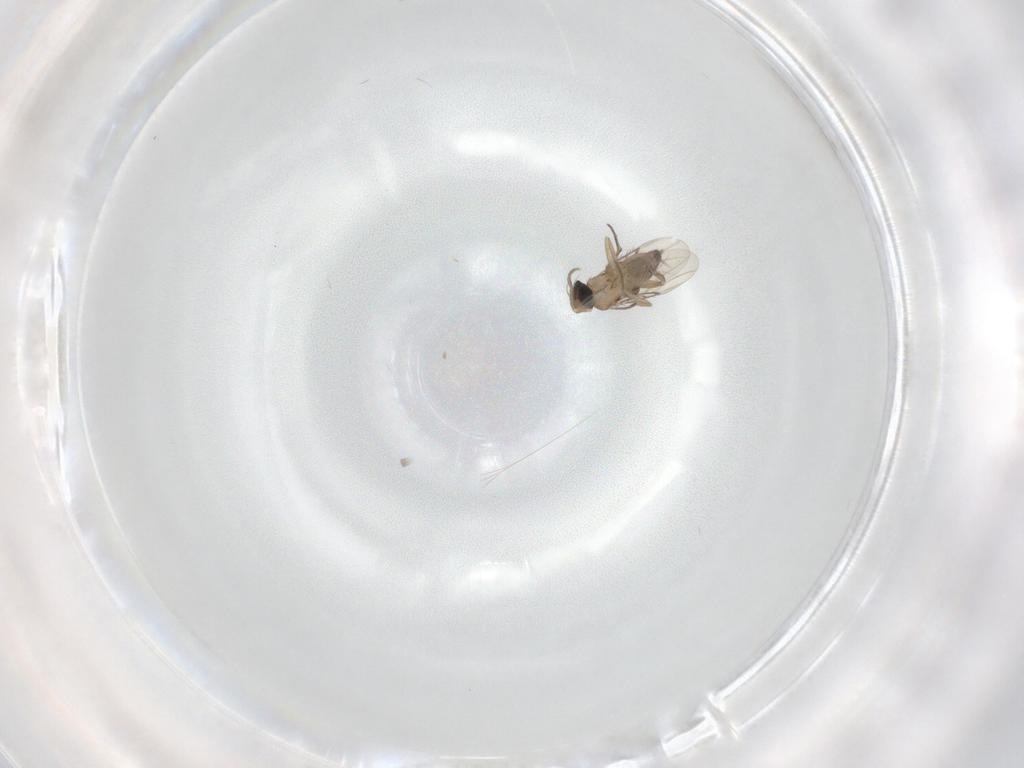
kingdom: Animalia
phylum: Arthropoda
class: Insecta
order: Diptera
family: Phoridae
